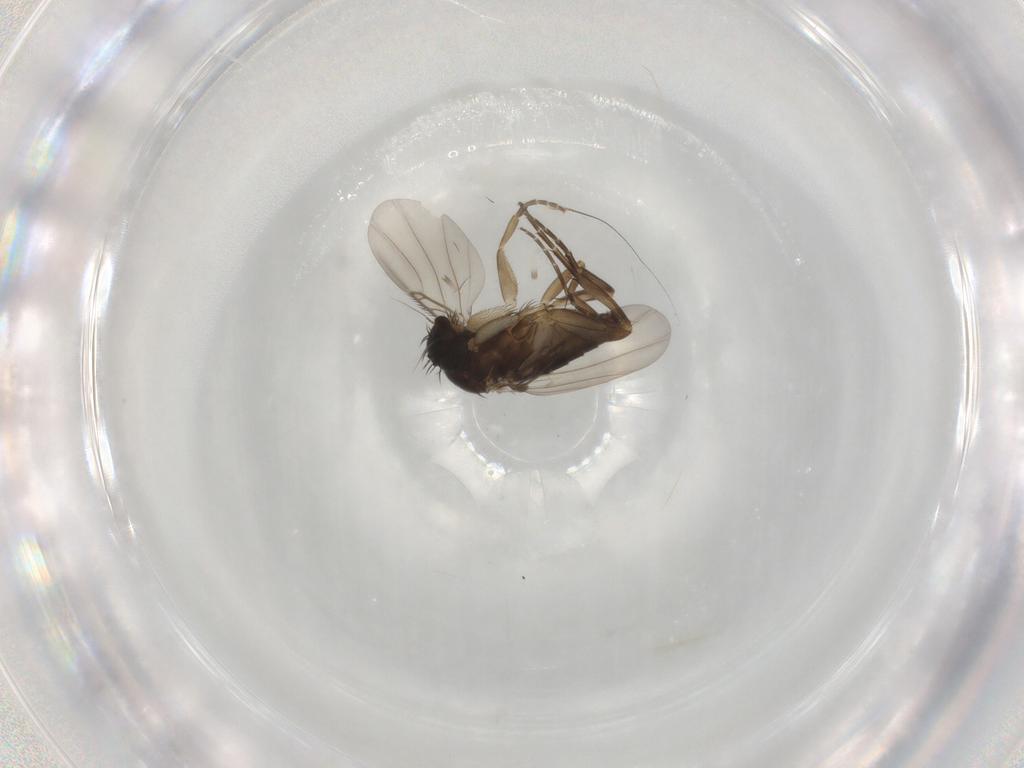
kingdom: Animalia
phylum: Arthropoda
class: Insecta
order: Diptera
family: Phoridae
